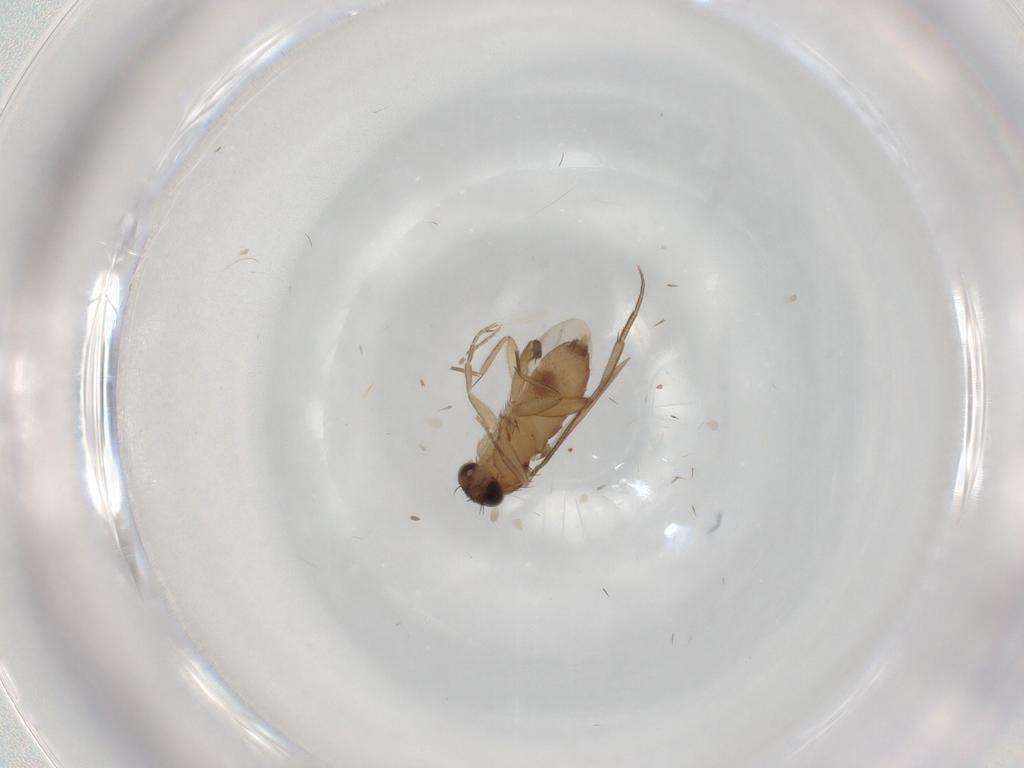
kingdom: Animalia
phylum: Arthropoda
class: Insecta
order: Diptera
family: Phoridae
